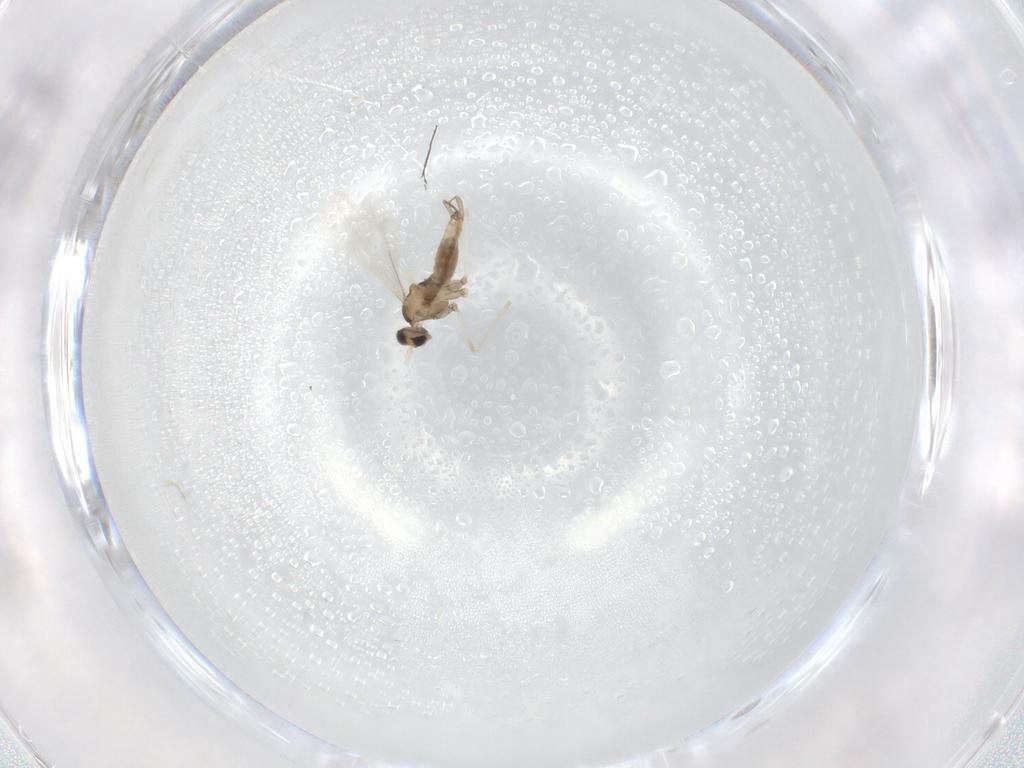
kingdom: Animalia
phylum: Arthropoda
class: Insecta
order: Diptera
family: Cecidomyiidae
